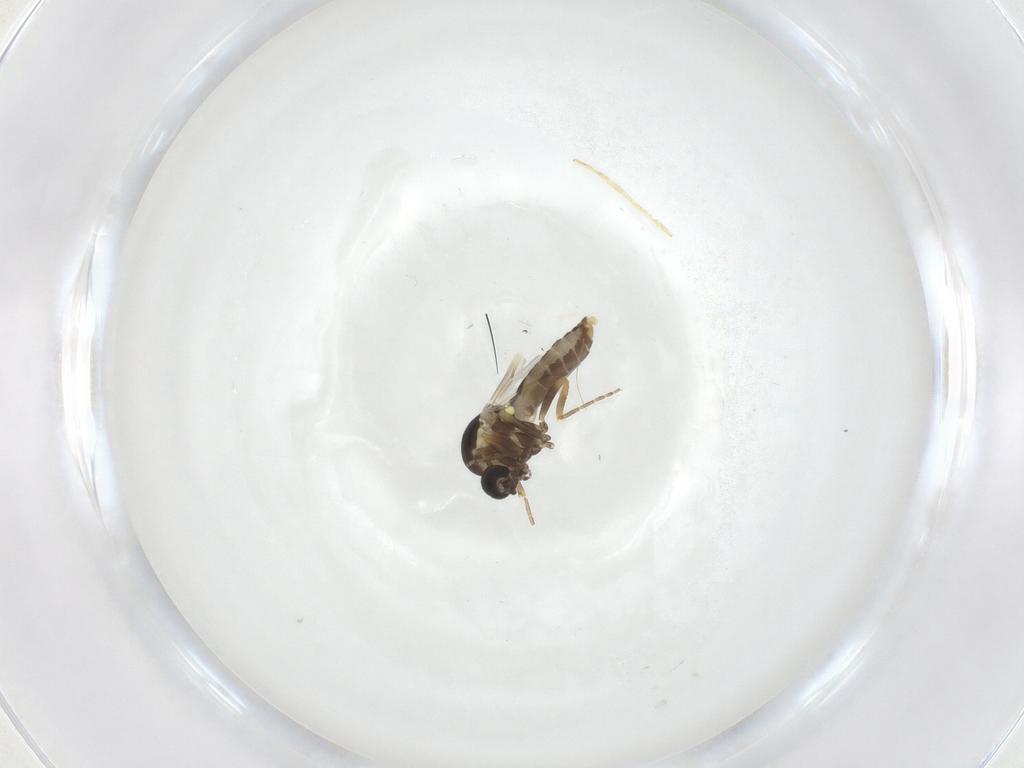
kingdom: Animalia
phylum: Arthropoda
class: Insecta
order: Diptera
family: Ceratopogonidae
